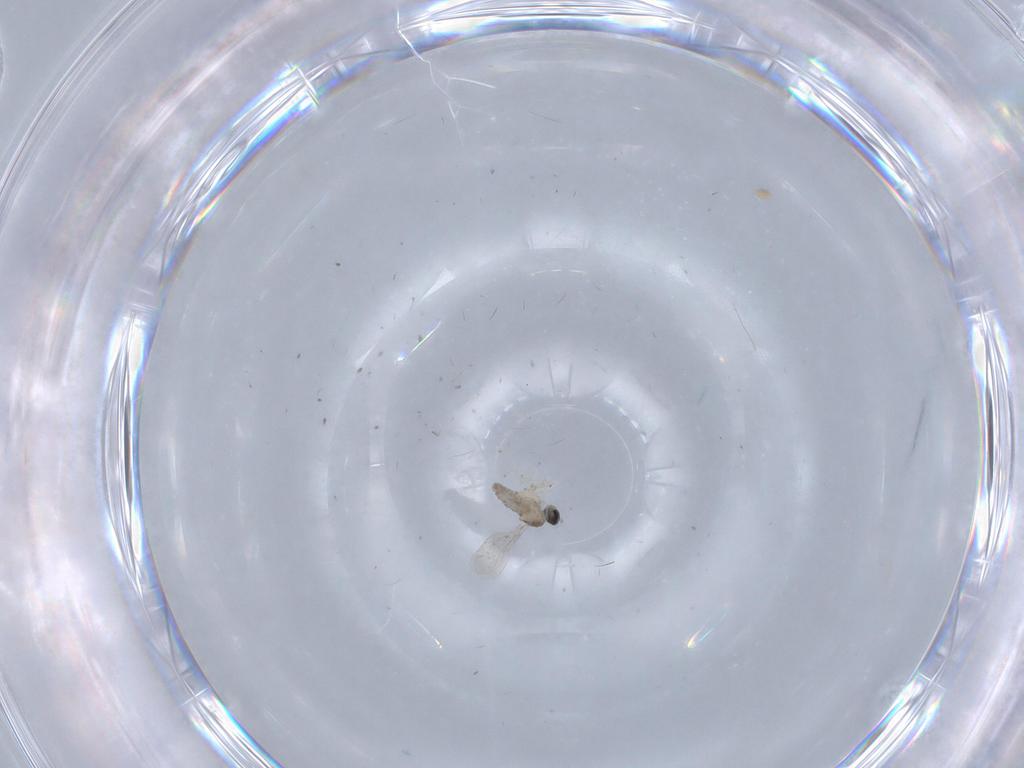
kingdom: Animalia
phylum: Arthropoda
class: Insecta
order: Diptera
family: Cecidomyiidae
